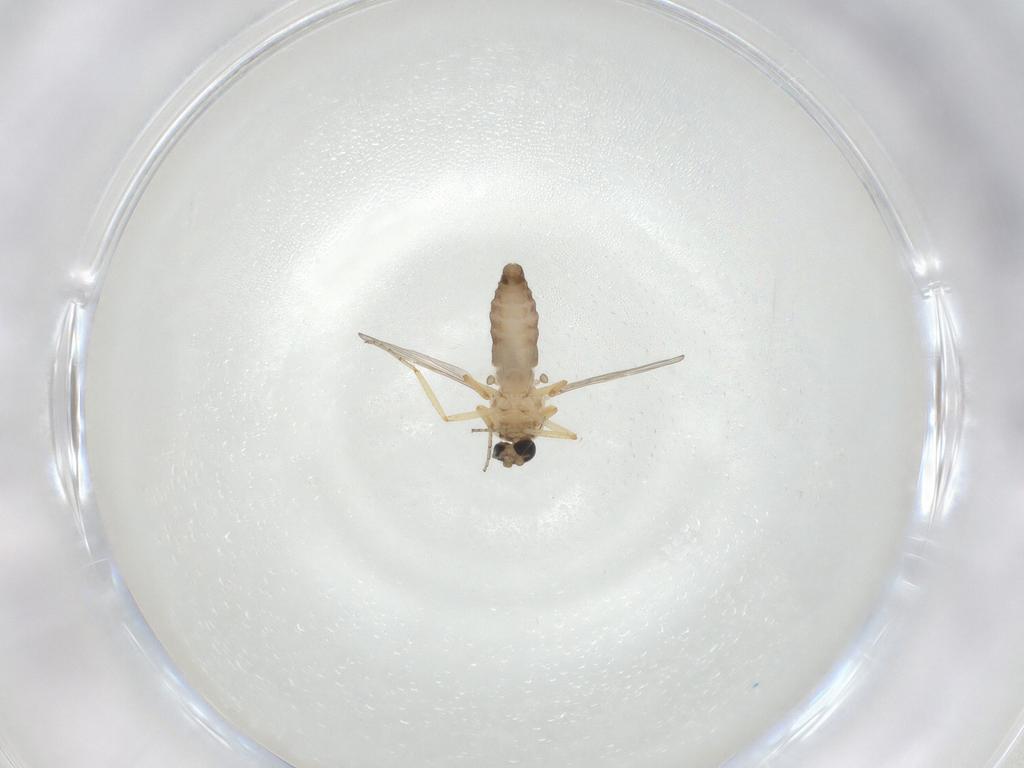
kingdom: Animalia
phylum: Arthropoda
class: Insecta
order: Diptera
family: Ceratopogonidae
